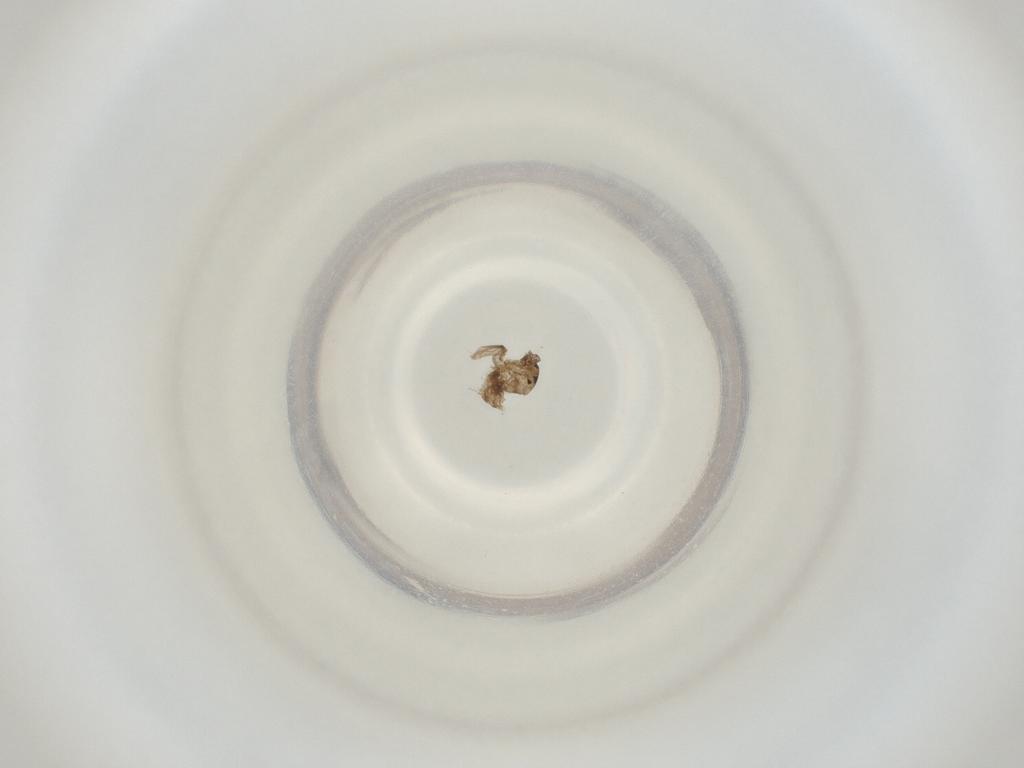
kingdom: Animalia
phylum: Arthropoda
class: Insecta
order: Diptera
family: Cecidomyiidae
